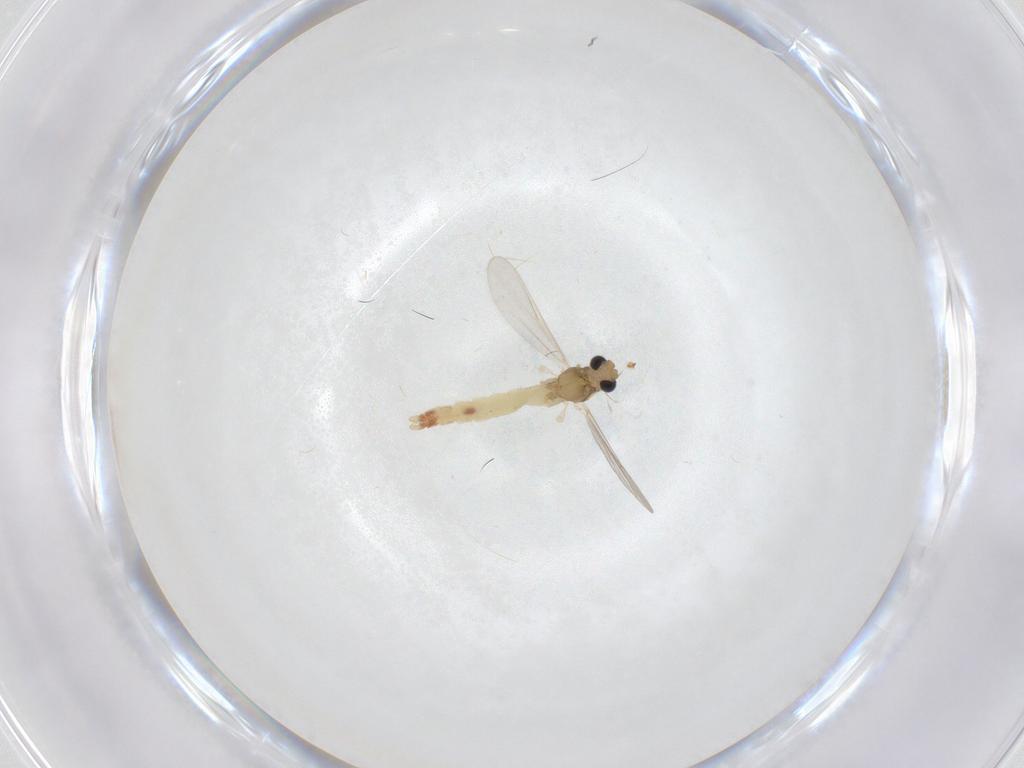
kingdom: Animalia
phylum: Arthropoda
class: Insecta
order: Diptera
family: Chironomidae
